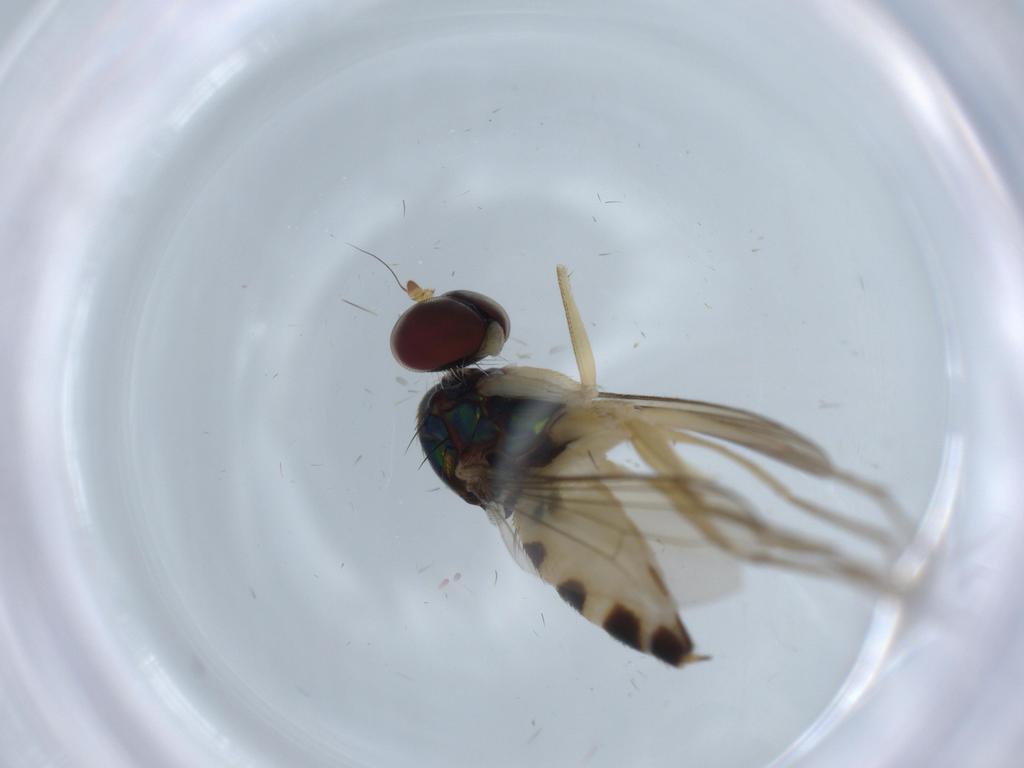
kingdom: Animalia
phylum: Arthropoda
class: Insecta
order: Diptera
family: Dolichopodidae
